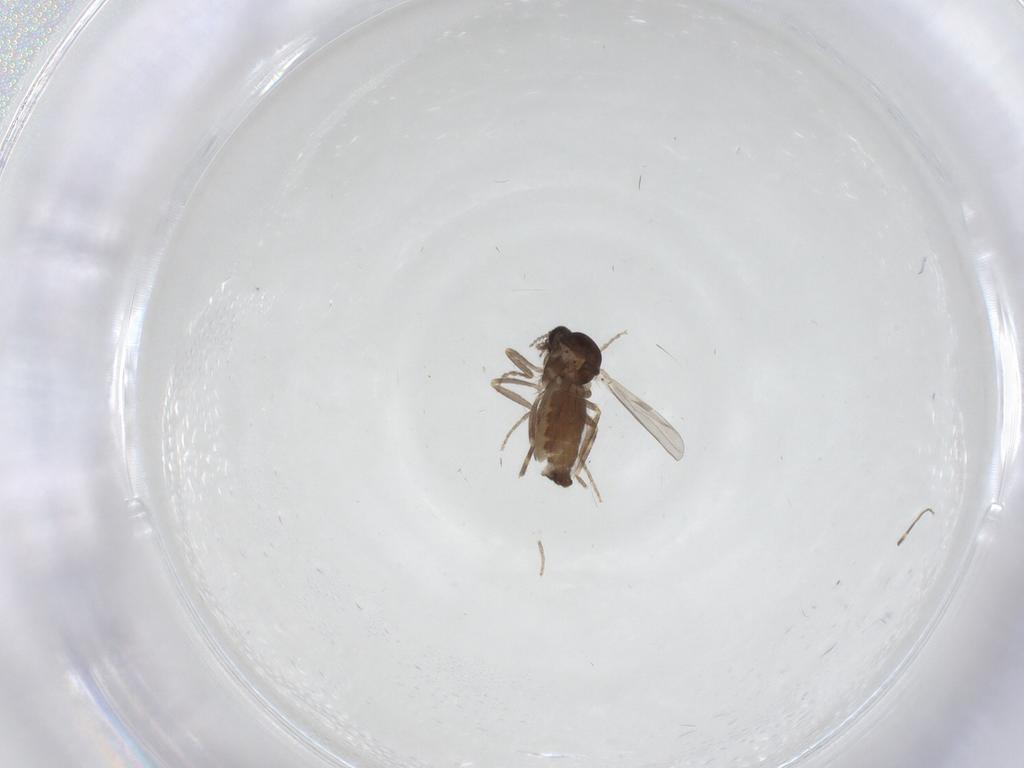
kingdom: Animalia
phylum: Arthropoda
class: Insecta
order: Diptera
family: Ceratopogonidae
